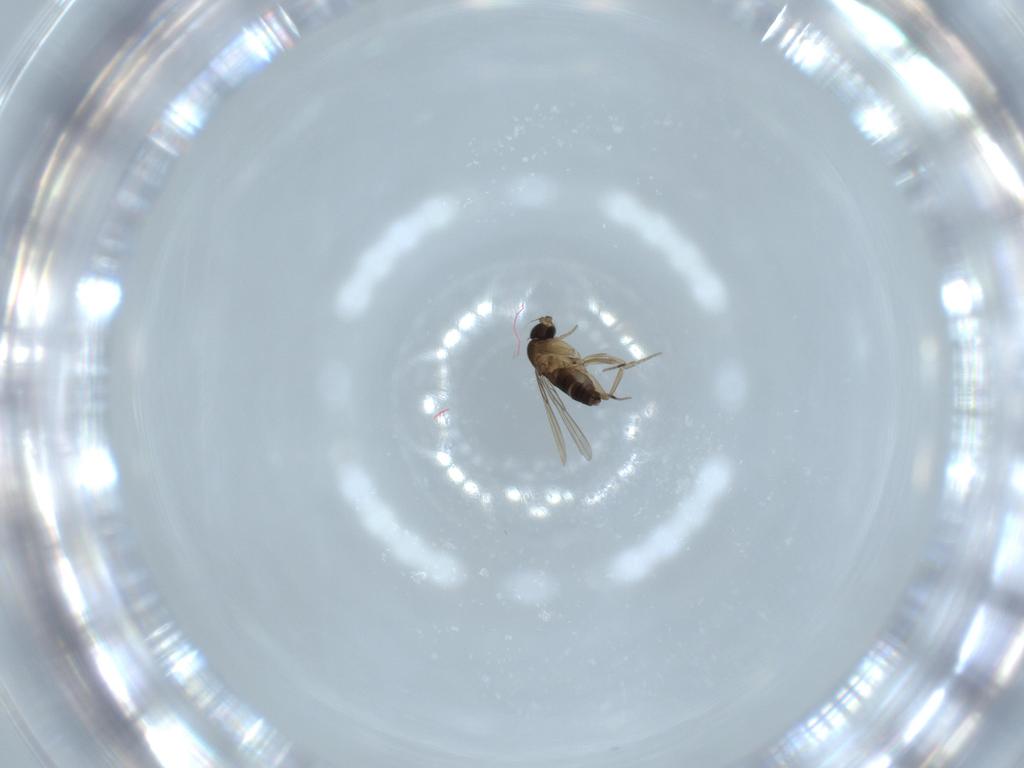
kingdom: Animalia
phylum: Arthropoda
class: Insecta
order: Diptera
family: Phoridae
